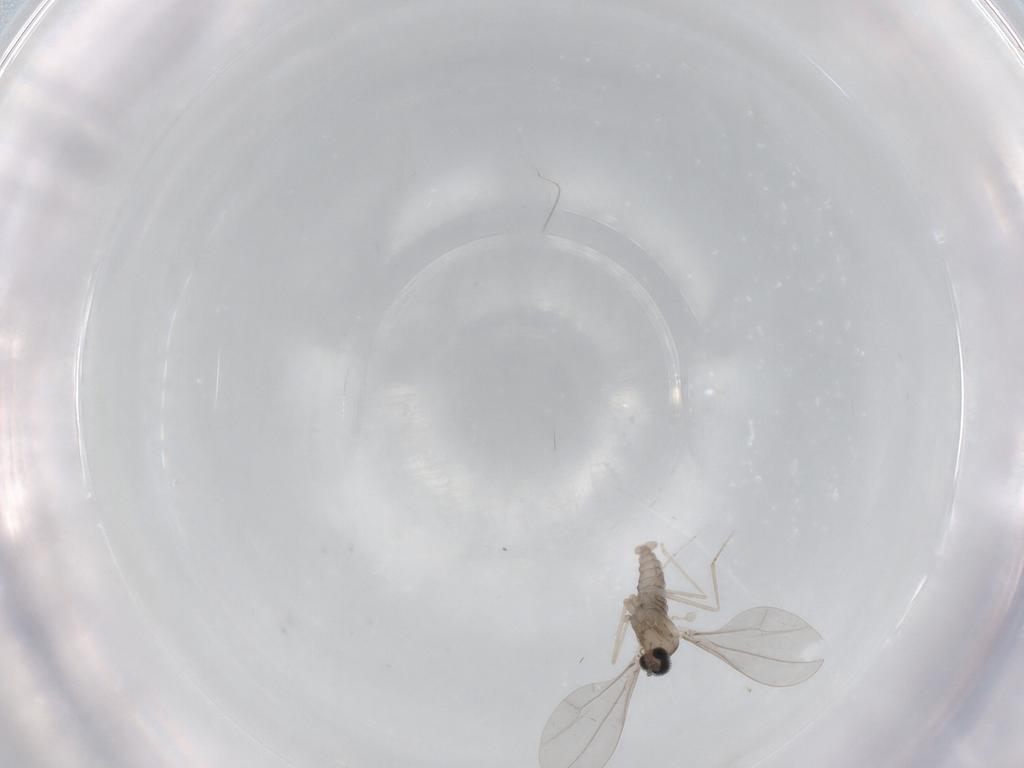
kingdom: Animalia
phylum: Arthropoda
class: Insecta
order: Diptera
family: Cecidomyiidae
